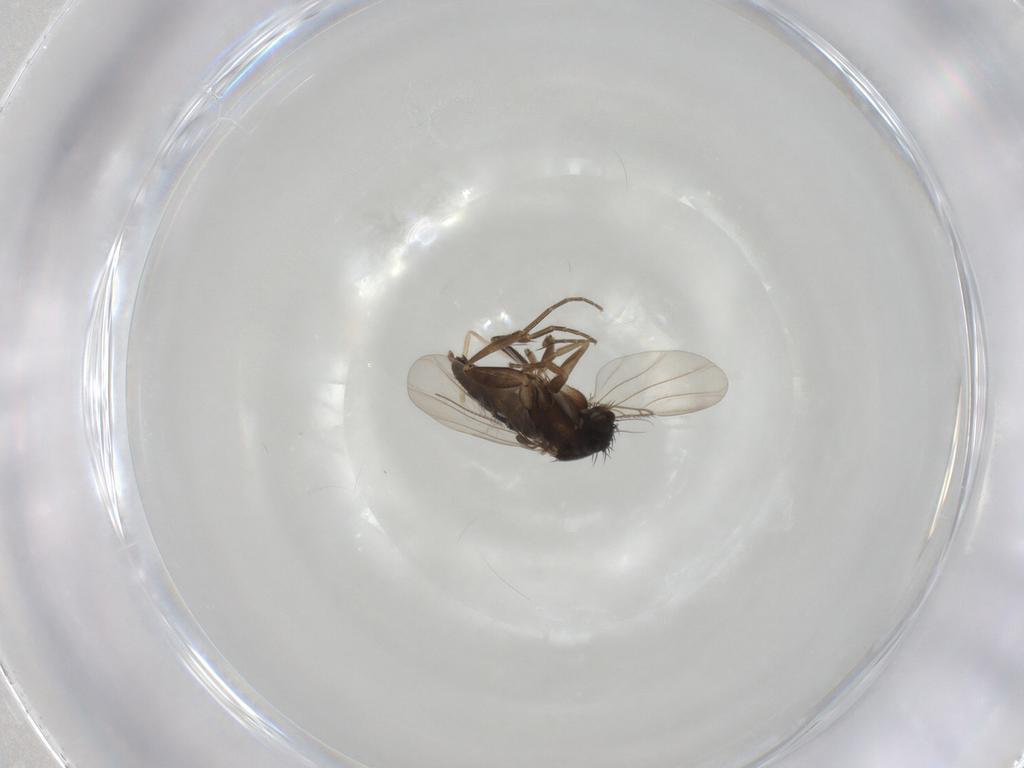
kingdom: Animalia
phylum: Arthropoda
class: Insecta
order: Diptera
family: Phoridae
